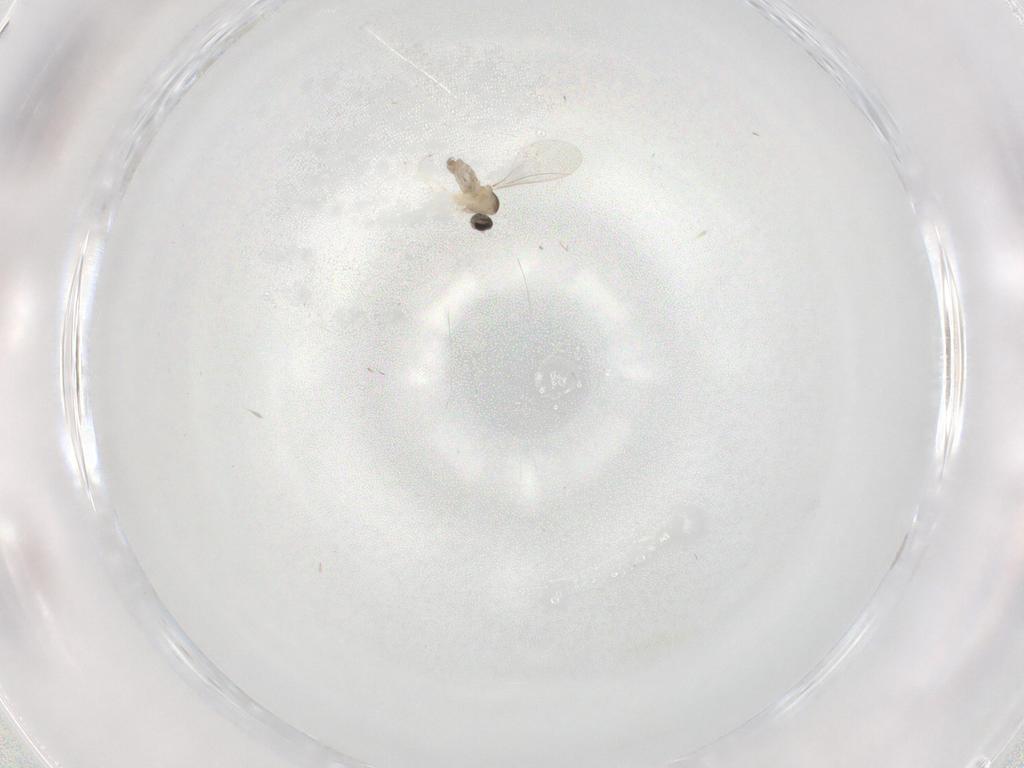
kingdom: Animalia
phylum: Arthropoda
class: Insecta
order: Diptera
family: Cecidomyiidae
